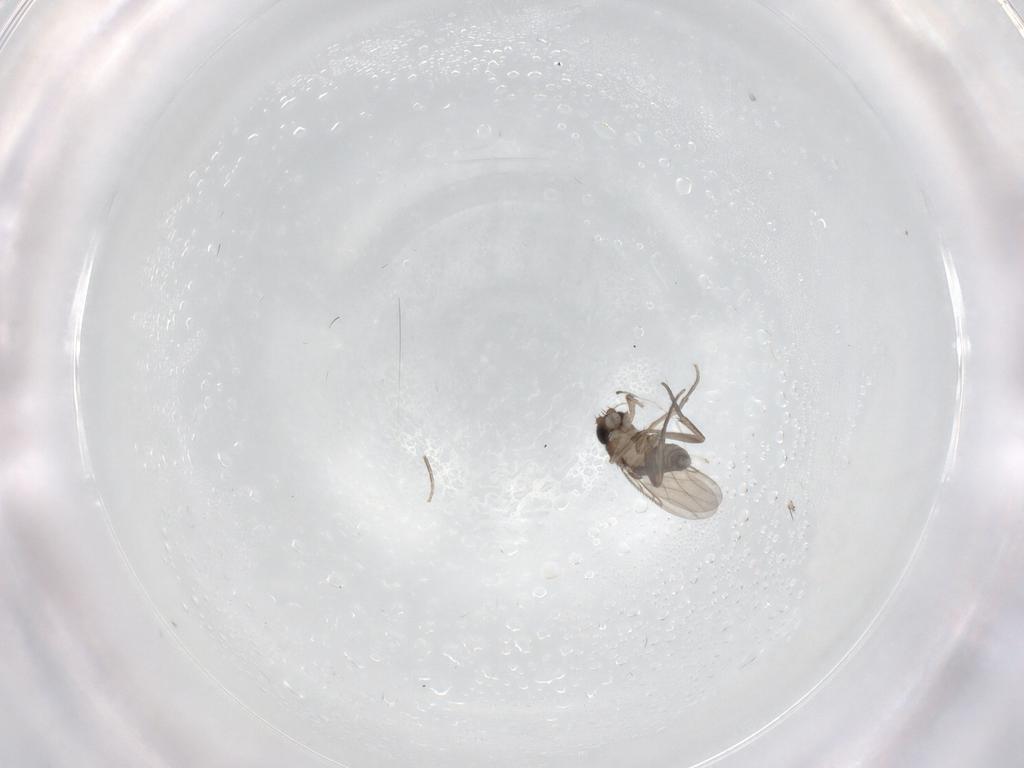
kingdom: Animalia
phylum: Arthropoda
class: Insecta
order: Diptera
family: Phoridae
